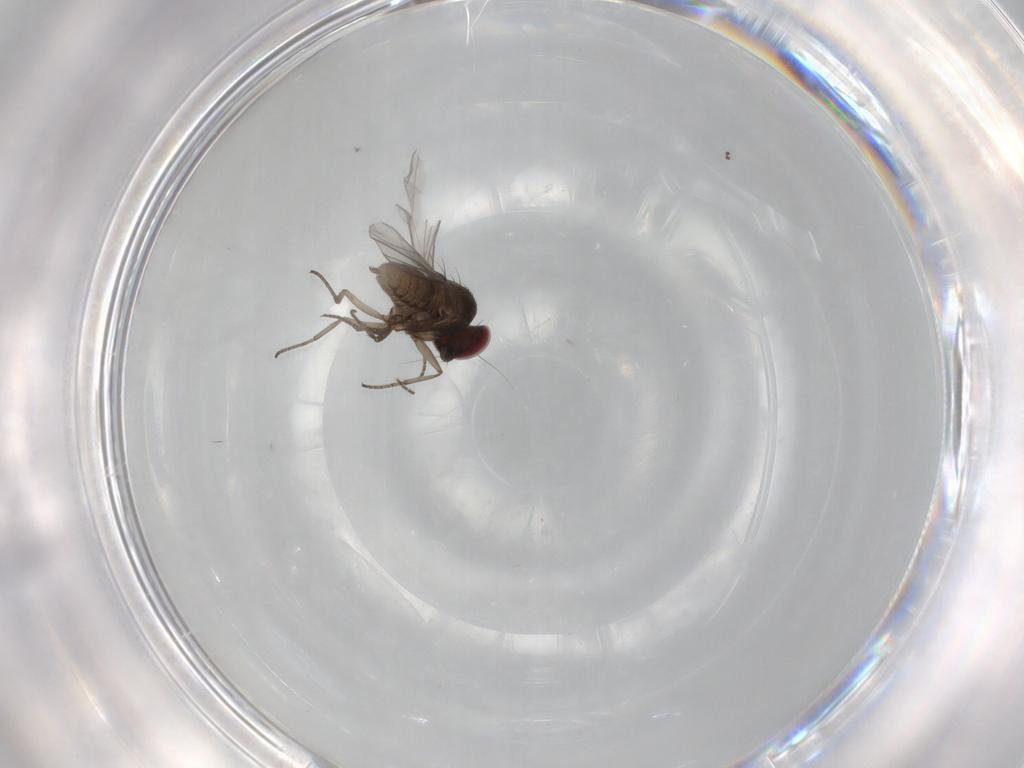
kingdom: Animalia
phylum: Arthropoda
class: Insecta
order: Diptera
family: Dolichopodidae
